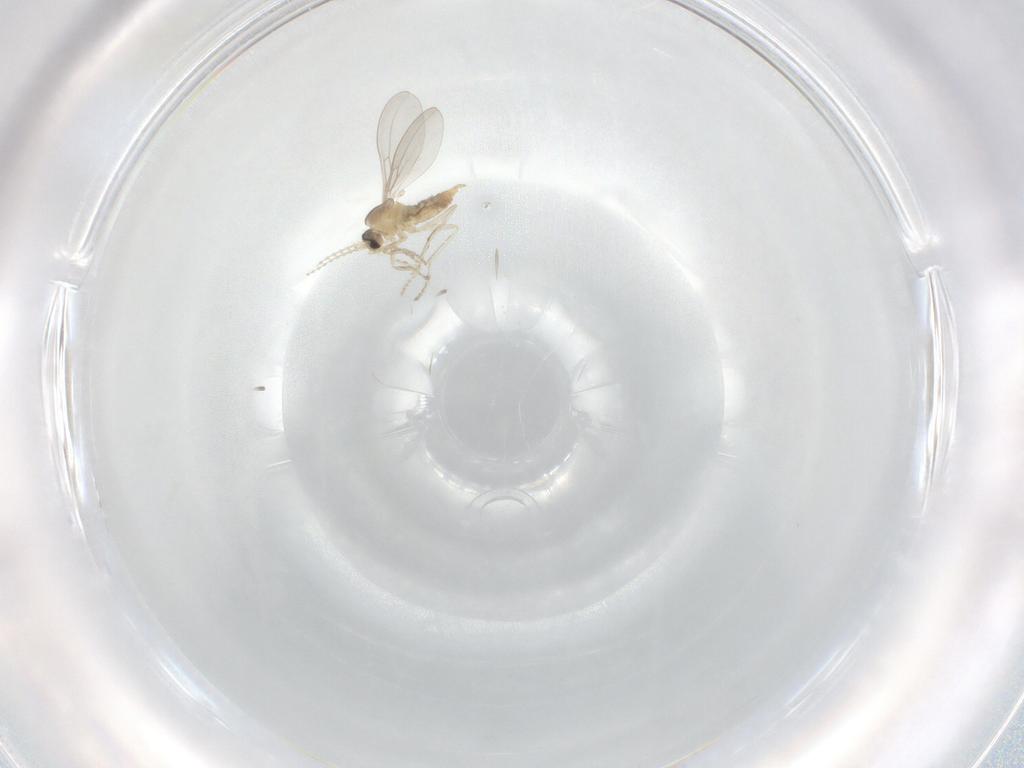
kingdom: Animalia
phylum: Arthropoda
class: Insecta
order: Diptera
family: Cecidomyiidae
